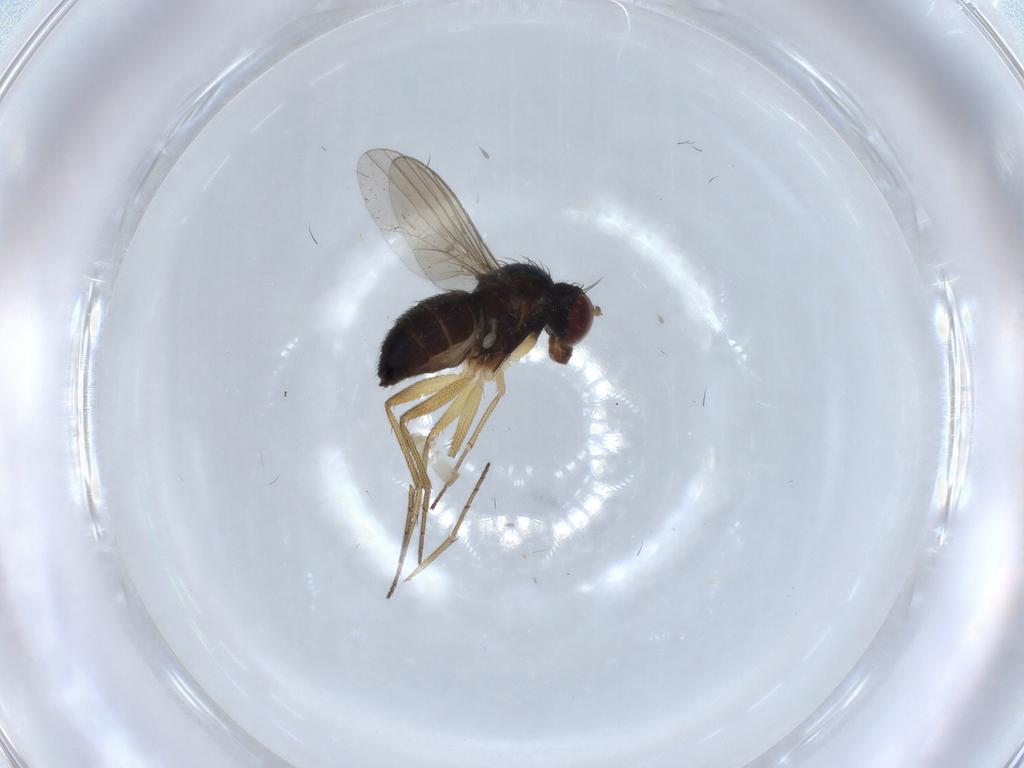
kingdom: Animalia
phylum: Arthropoda
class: Insecta
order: Diptera
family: Dolichopodidae
